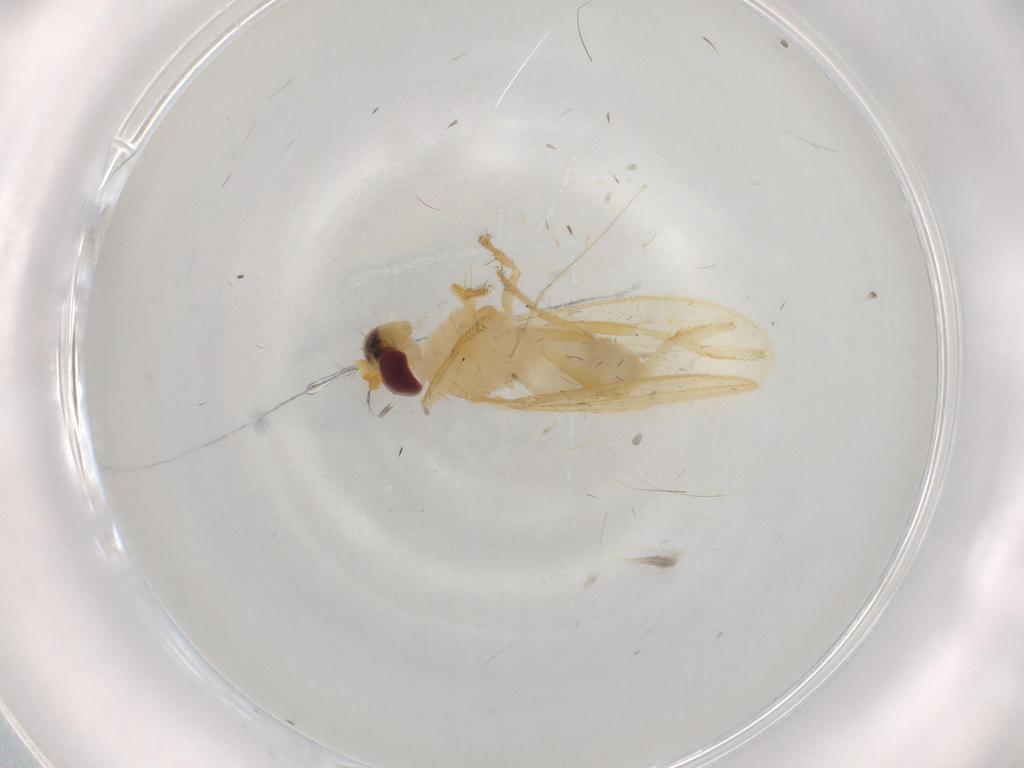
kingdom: Animalia
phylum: Arthropoda
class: Insecta
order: Diptera
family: Periscelididae
